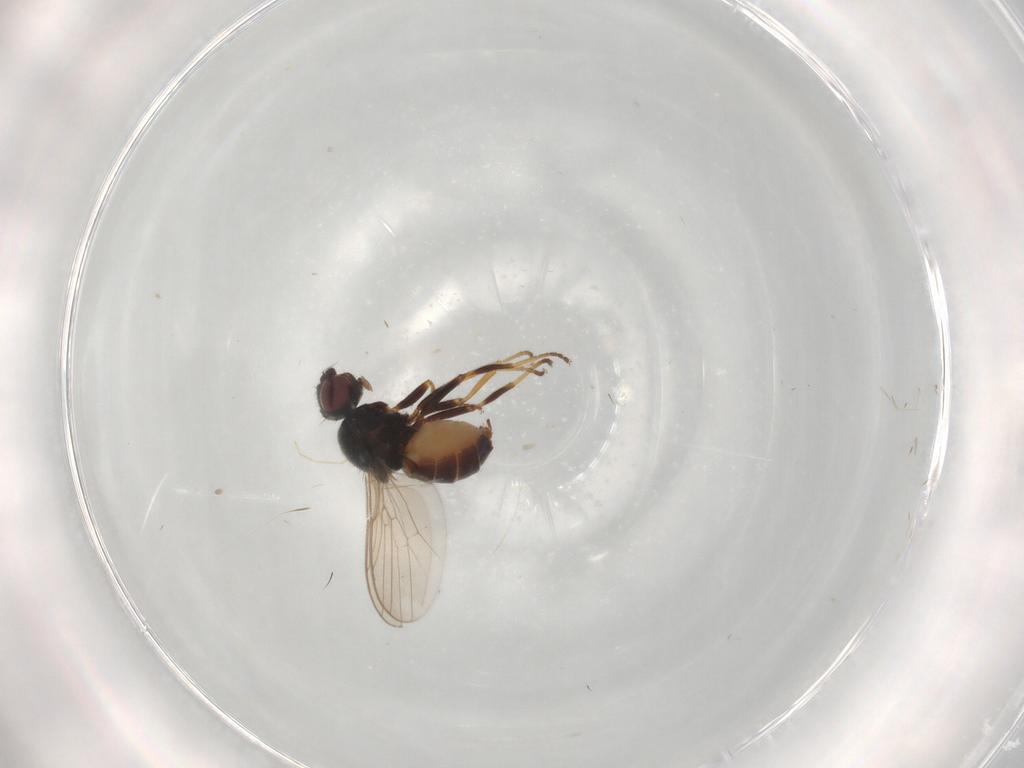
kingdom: Animalia
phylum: Arthropoda
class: Insecta
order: Diptera
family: Chloropidae
